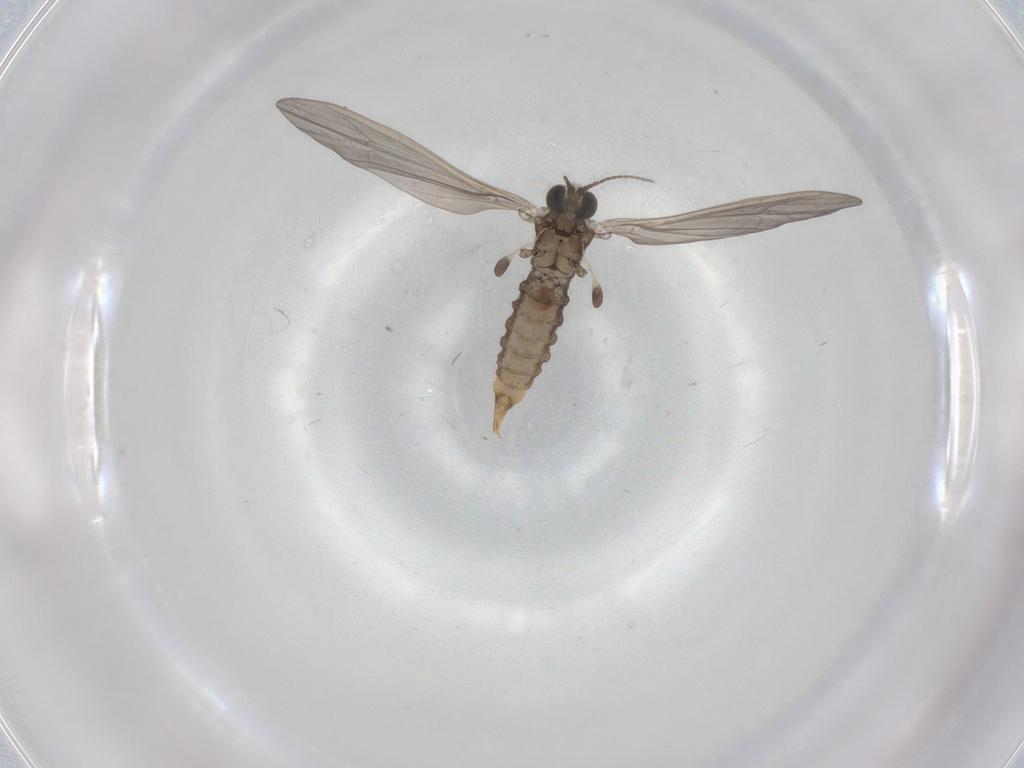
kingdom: Animalia
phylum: Arthropoda
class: Insecta
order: Diptera
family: Limoniidae
